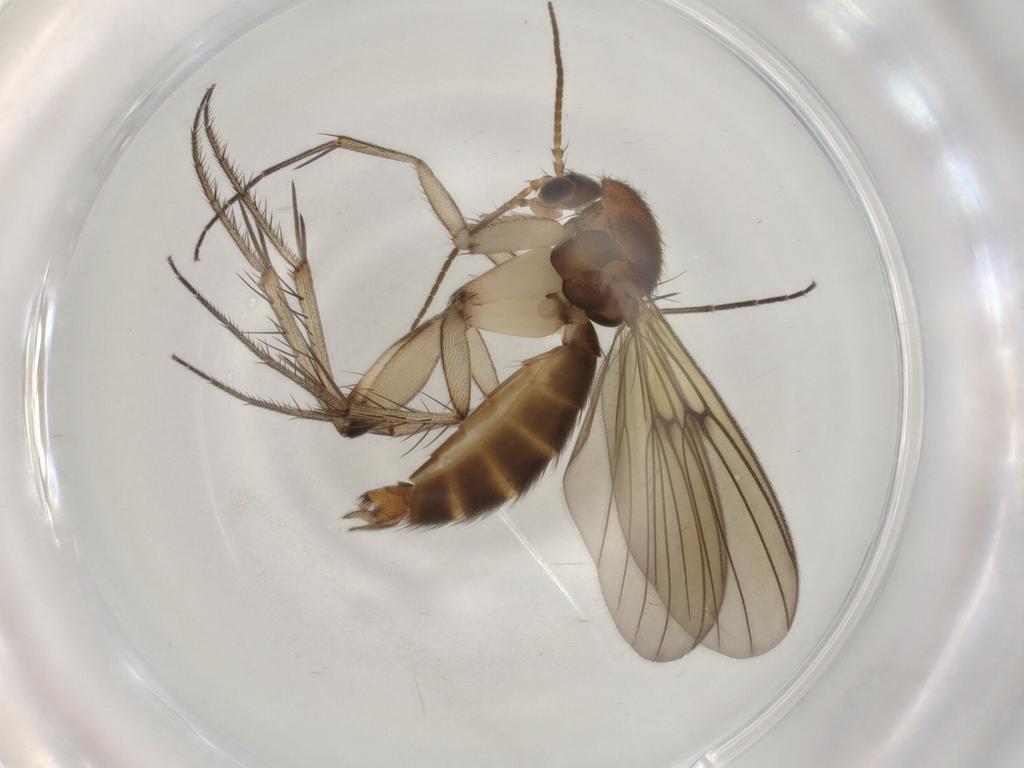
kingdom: Animalia
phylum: Arthropoda
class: Insecta
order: Diptera
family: Mycetophilidae
